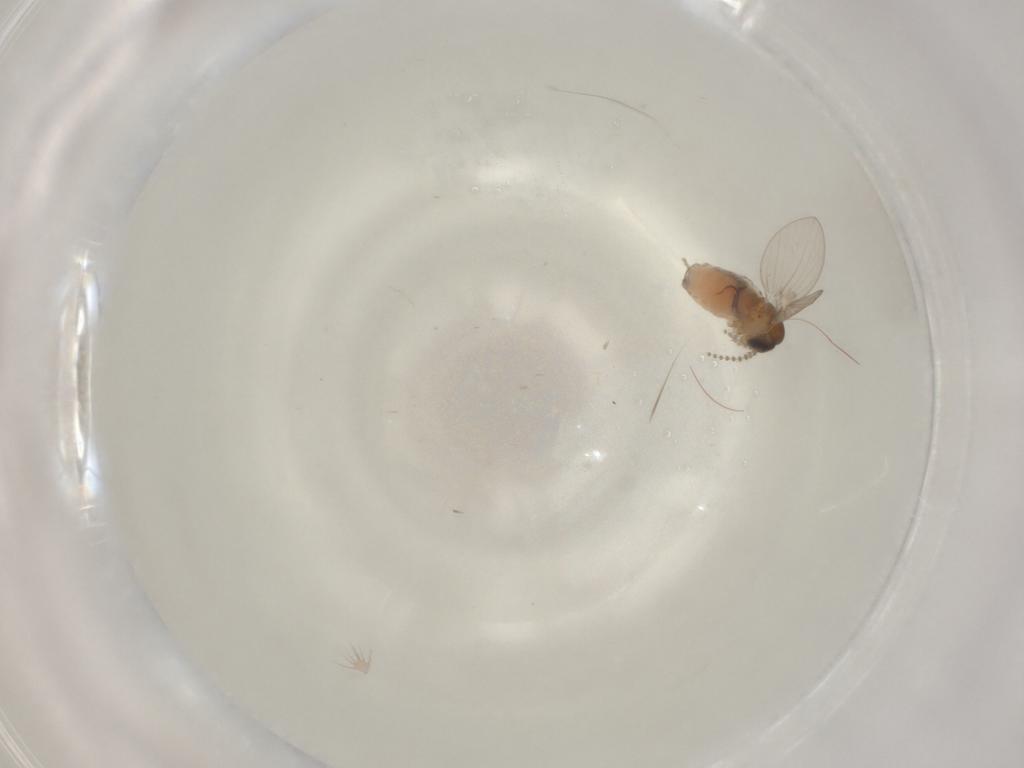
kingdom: Animalia
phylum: Arthropoda
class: Insecta
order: Diptera
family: Psychodidae
